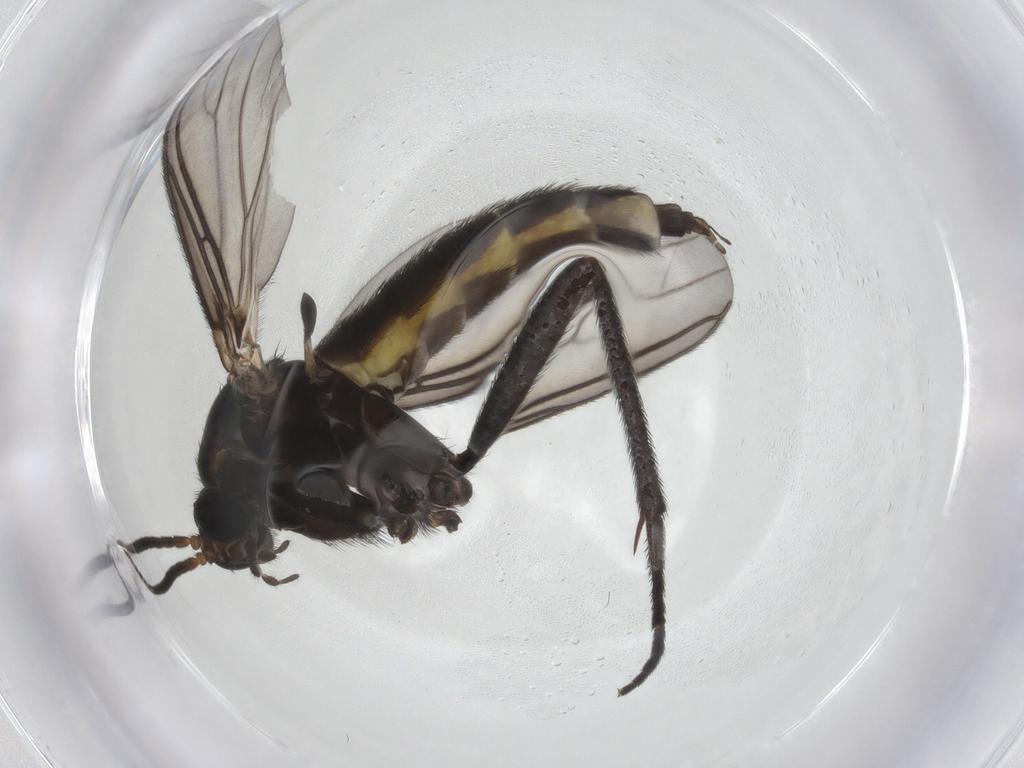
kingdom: Animalia
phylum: Arthropoda
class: Insecta
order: Diptera
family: Sciaridae
